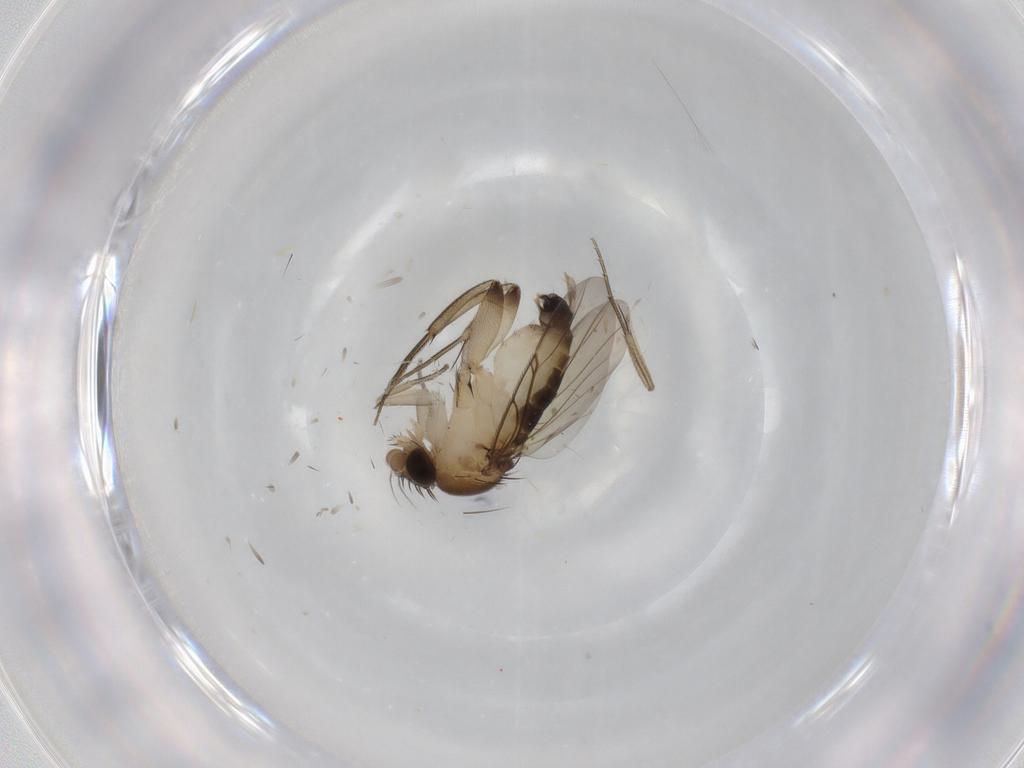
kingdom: Animalia
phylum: Arthropoda
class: Insecta
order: Diptera
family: Phoridae
